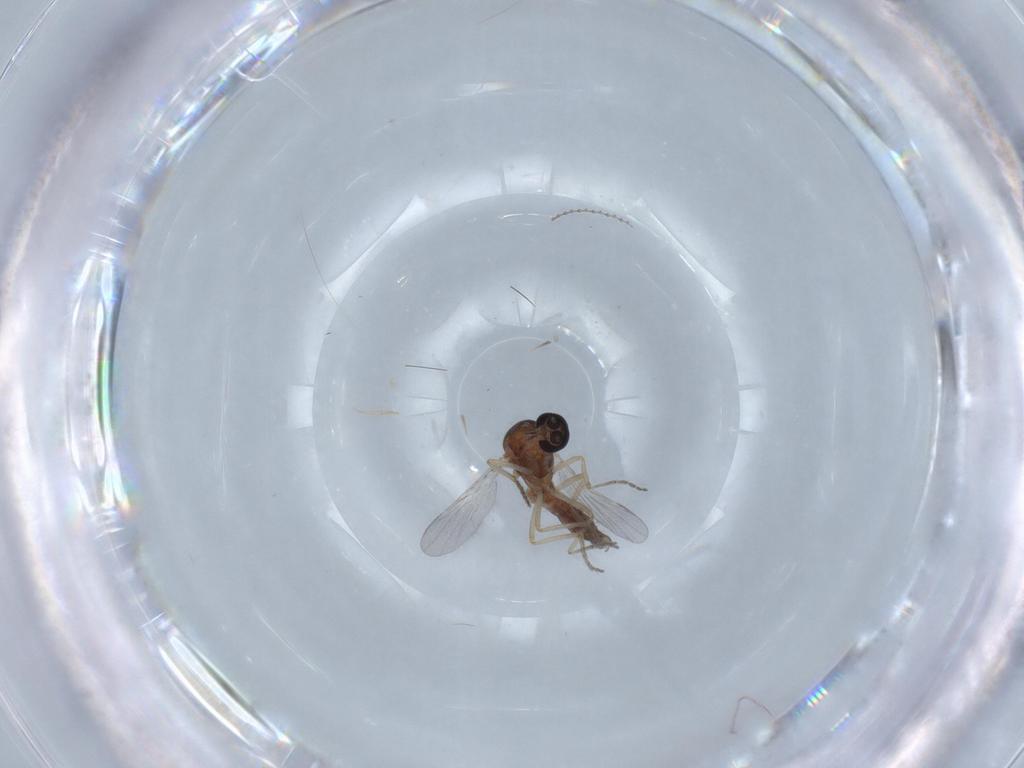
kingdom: Animalia
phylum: Arthropoda
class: Insecta
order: Diptera
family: Ceratopogonidae
